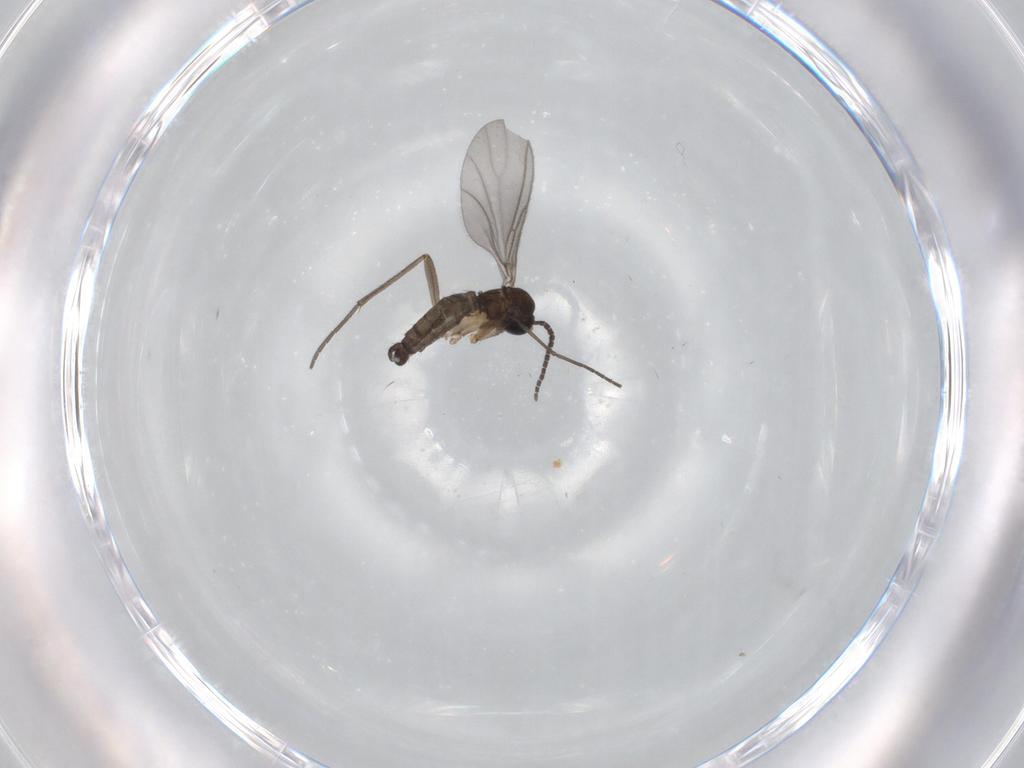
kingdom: Animalia
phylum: Arthropoda
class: Insecta
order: Diptera
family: Sciaridae
